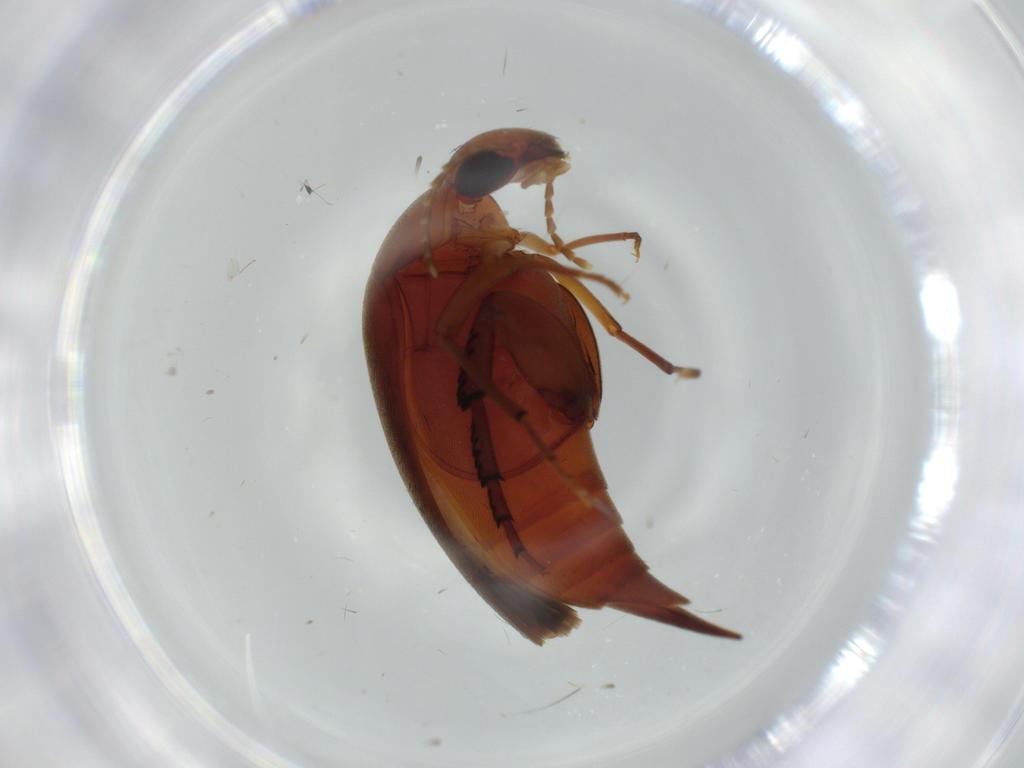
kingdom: Animalia
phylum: Arthropoda
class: Insecta
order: Coleoptera
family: Mordellidae
